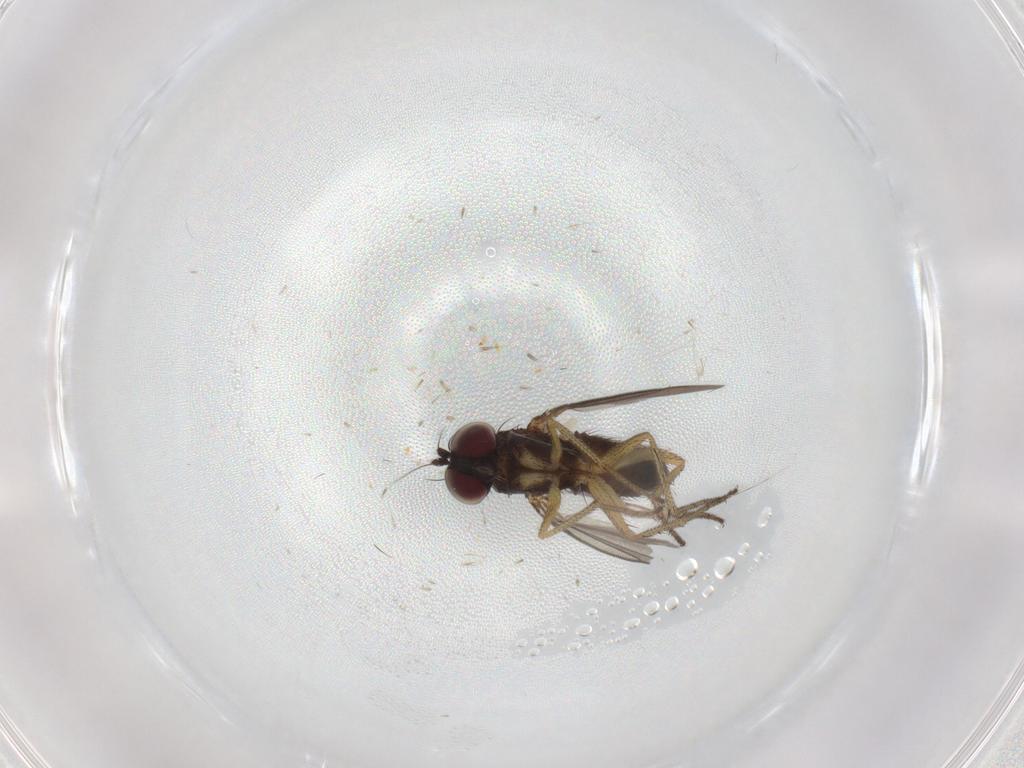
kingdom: Animalia
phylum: Arthropoda
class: Insecta
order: Diptera
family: Dolichopodidae
